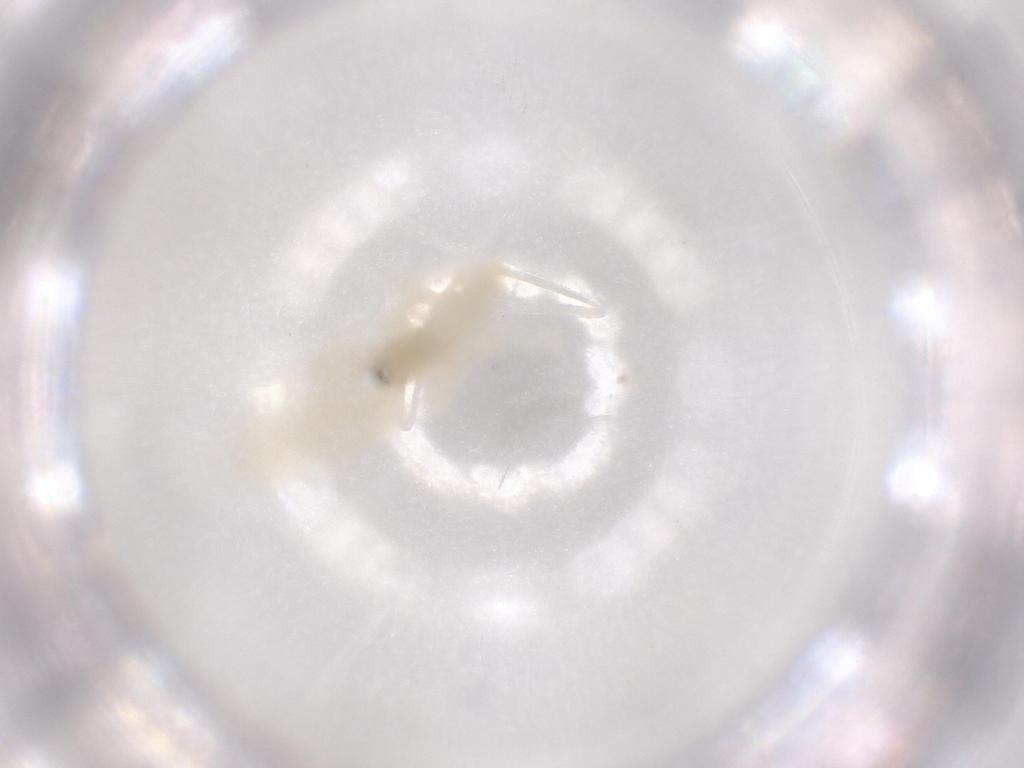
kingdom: Animalia
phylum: Arthropoda
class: Insecta
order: Diptera
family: Cecidomyiidae
